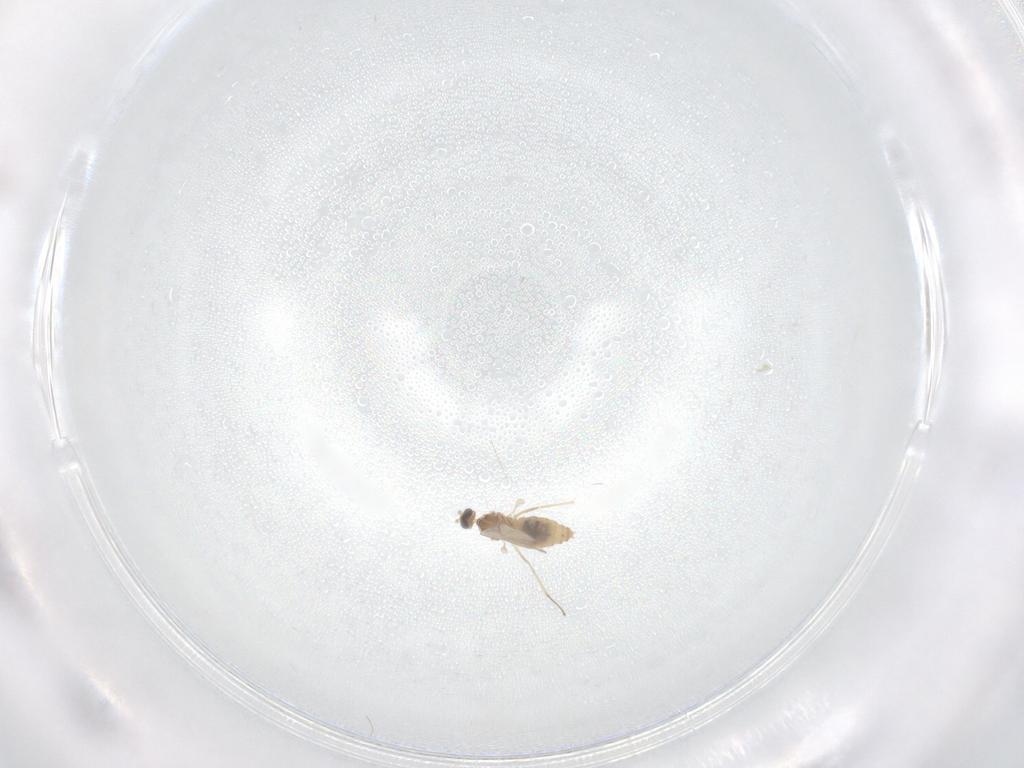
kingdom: Animalia
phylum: Arthropoda
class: Insecta
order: Diptera
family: Cecidomyiidae
